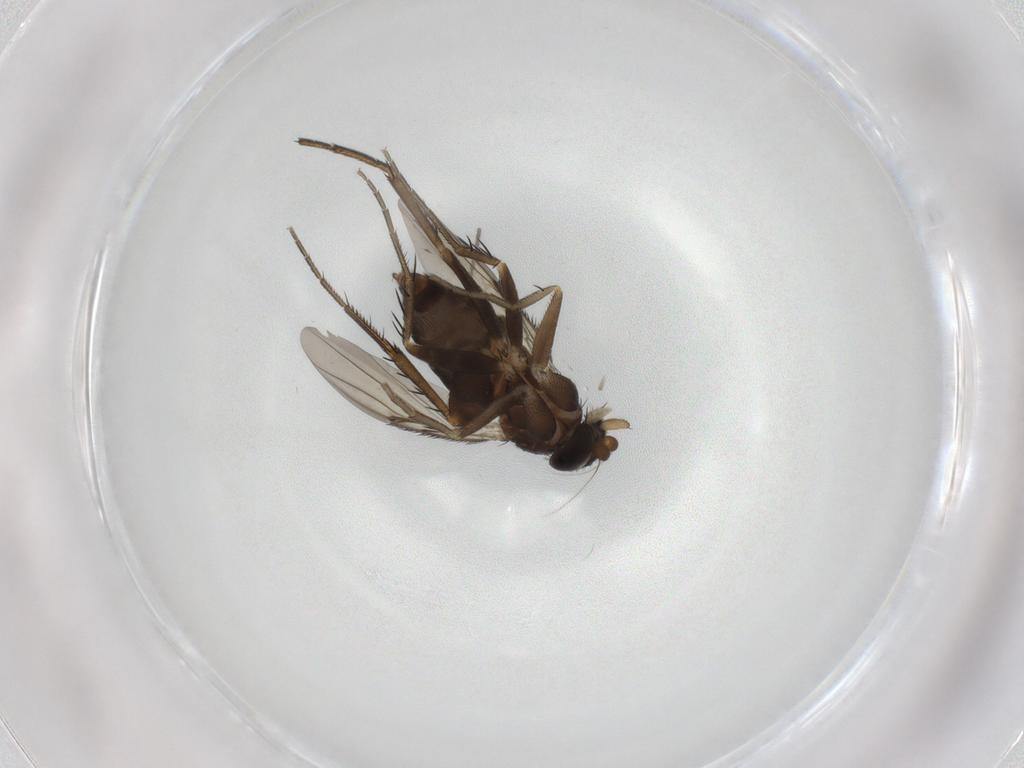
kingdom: Animalia
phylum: Arthropoda
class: Insecta
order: Diptera
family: Phoridae
